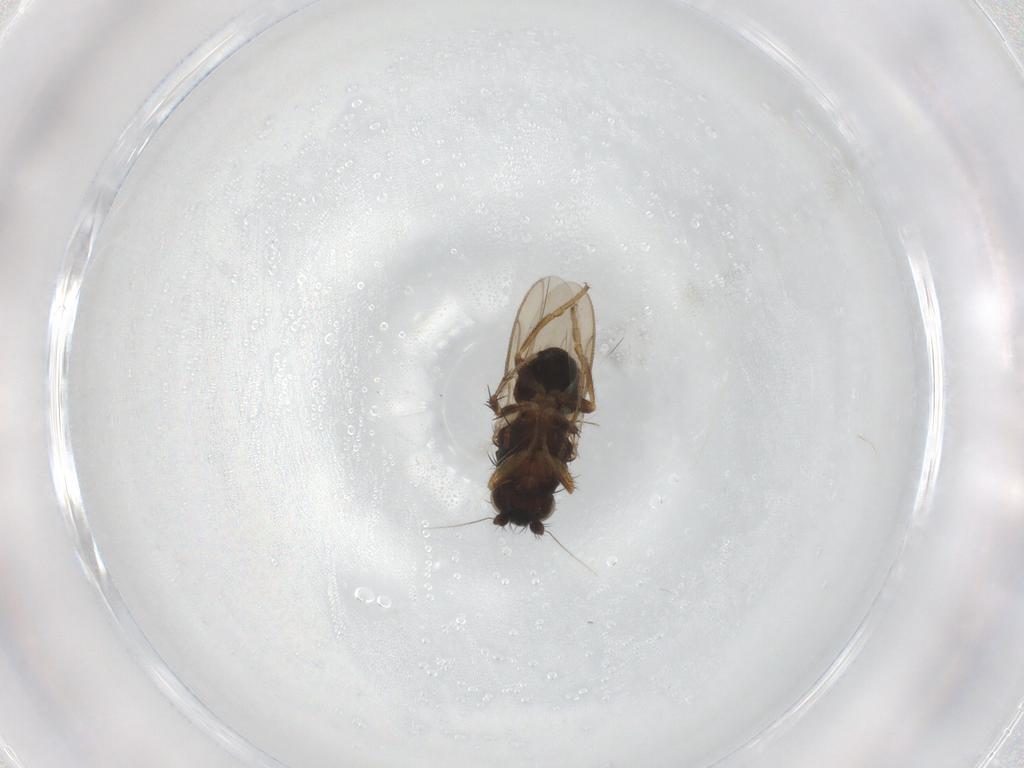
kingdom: Animalia
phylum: Arthropoda
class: Insecta
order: Diptera
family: Sphaeroceridae
